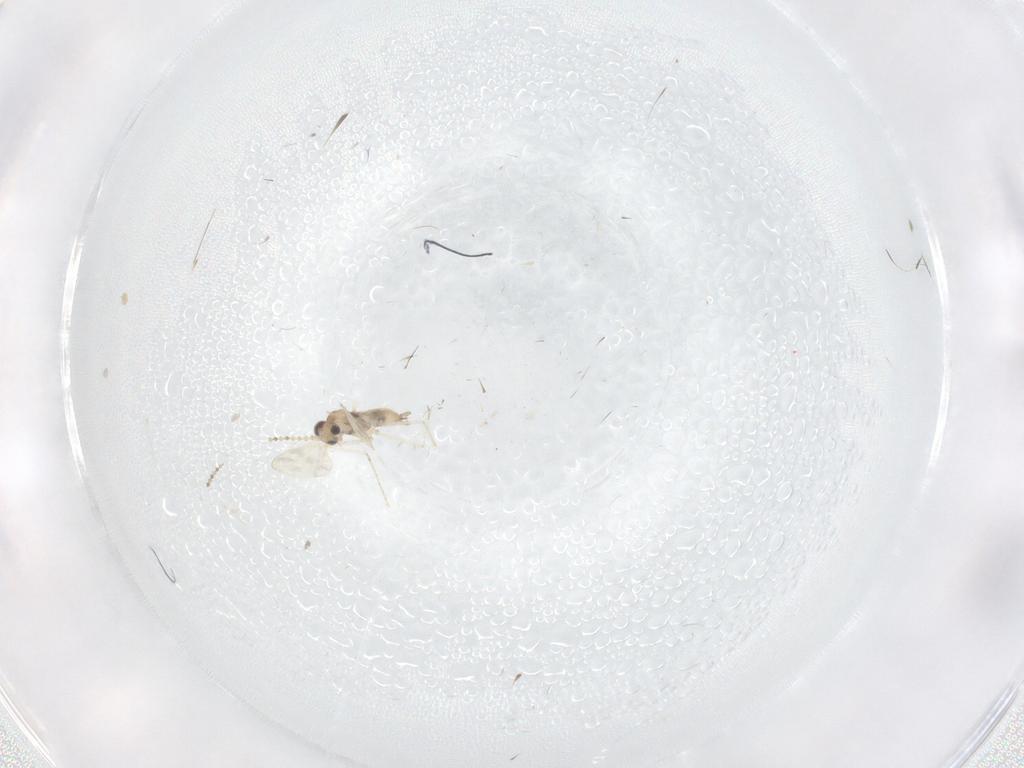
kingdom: Animalia
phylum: Arthropoda
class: Insecta
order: Diptera
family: Cecidomyiidae
